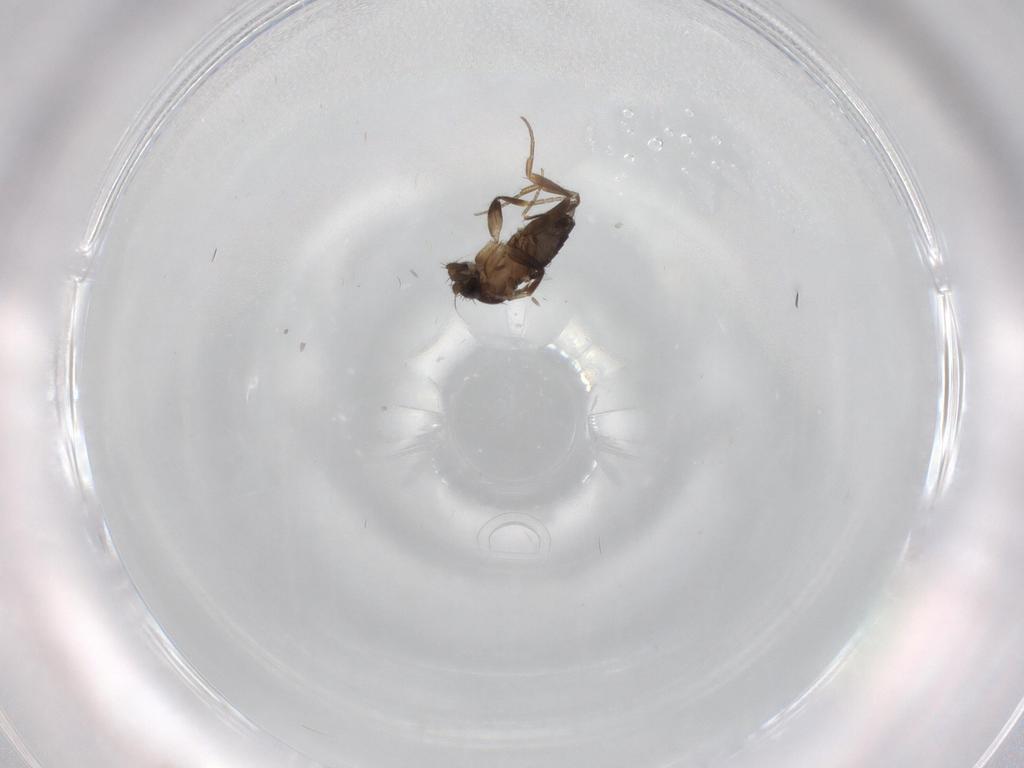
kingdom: Animalia
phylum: Arthropoda
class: Insecta
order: Diptera
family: Phoridae
